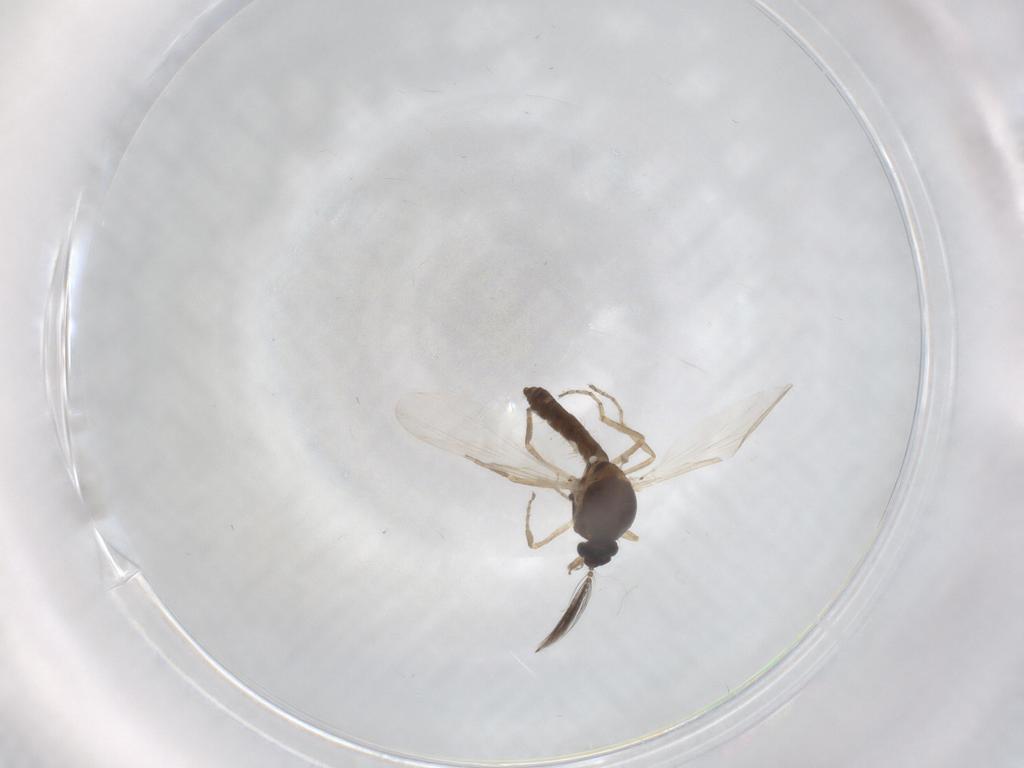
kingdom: Animalia
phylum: Arthropoda
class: Insecta
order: Diptera
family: Ceratopogonidae
